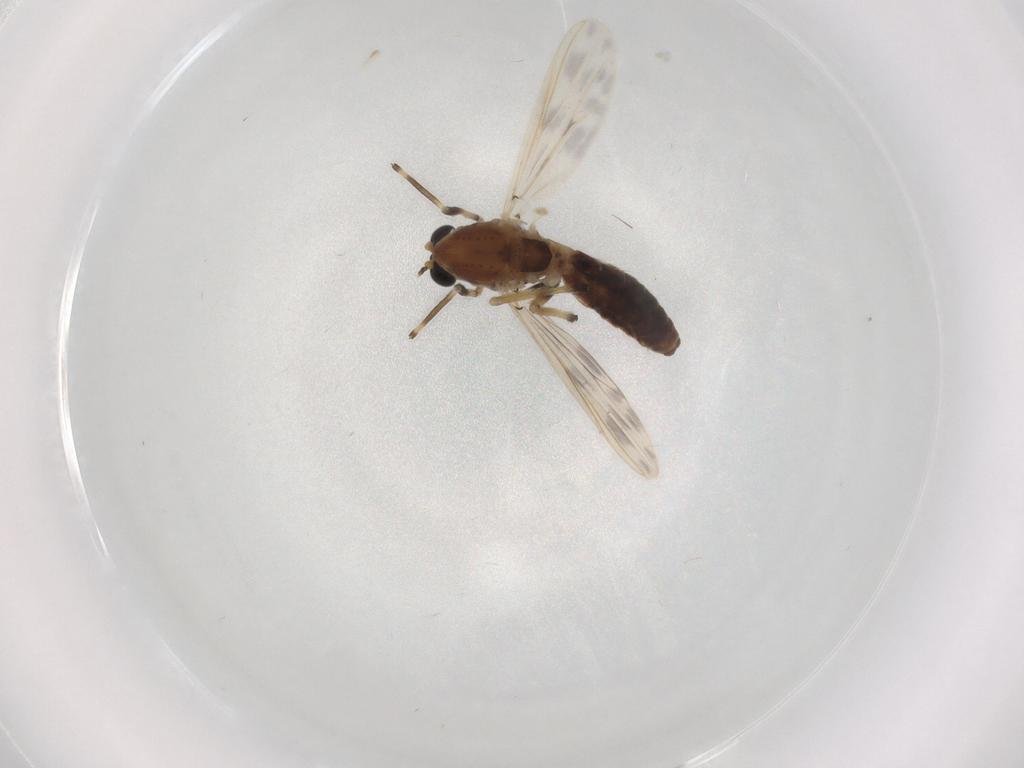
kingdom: Animalia
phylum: Arthropoda
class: Insecta
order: Diptera
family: Chironomidae
